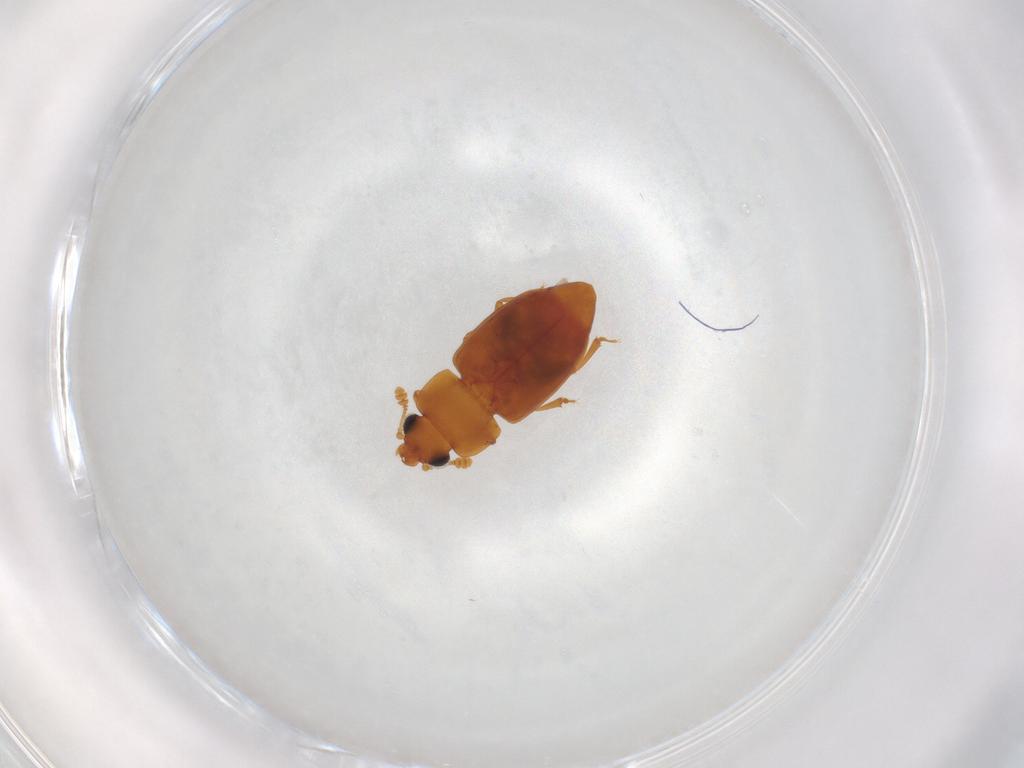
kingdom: Animalia
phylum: Arthropoda
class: Insecta
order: Coleoptera
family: Nitidulidae
